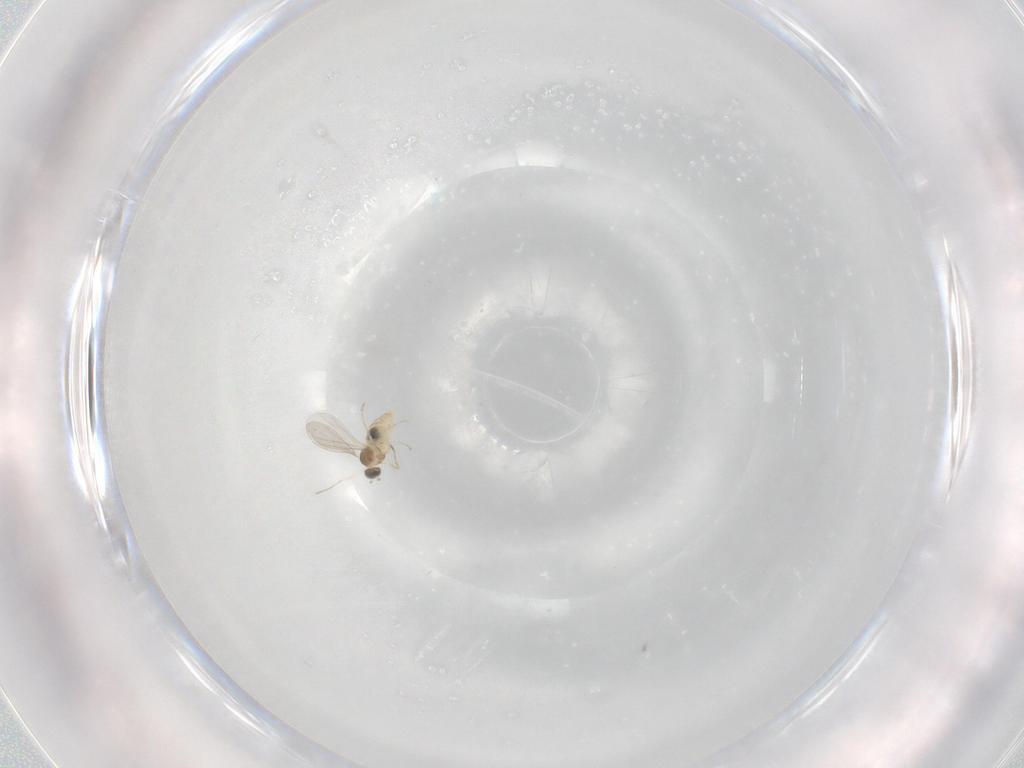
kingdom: Animalia
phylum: Arthropoda
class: Insecta
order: Diptera
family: Cecidomyiidae
